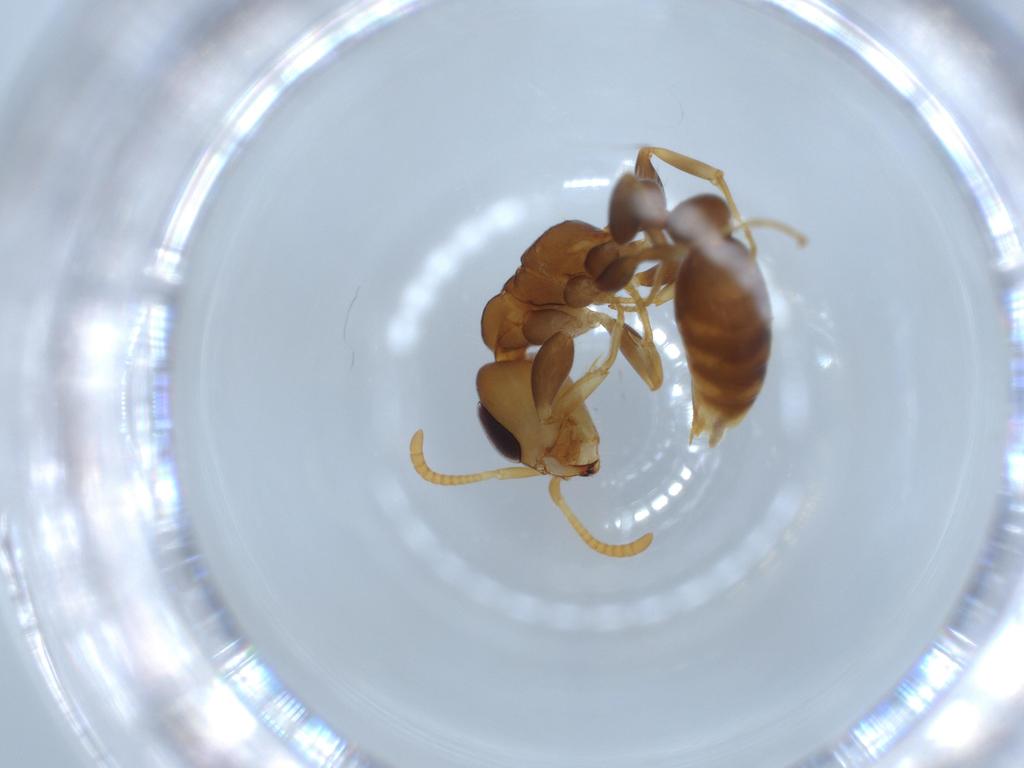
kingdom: Animalia
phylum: Arthropoda
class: Insecta
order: Hymenoptera
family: Formicidae
